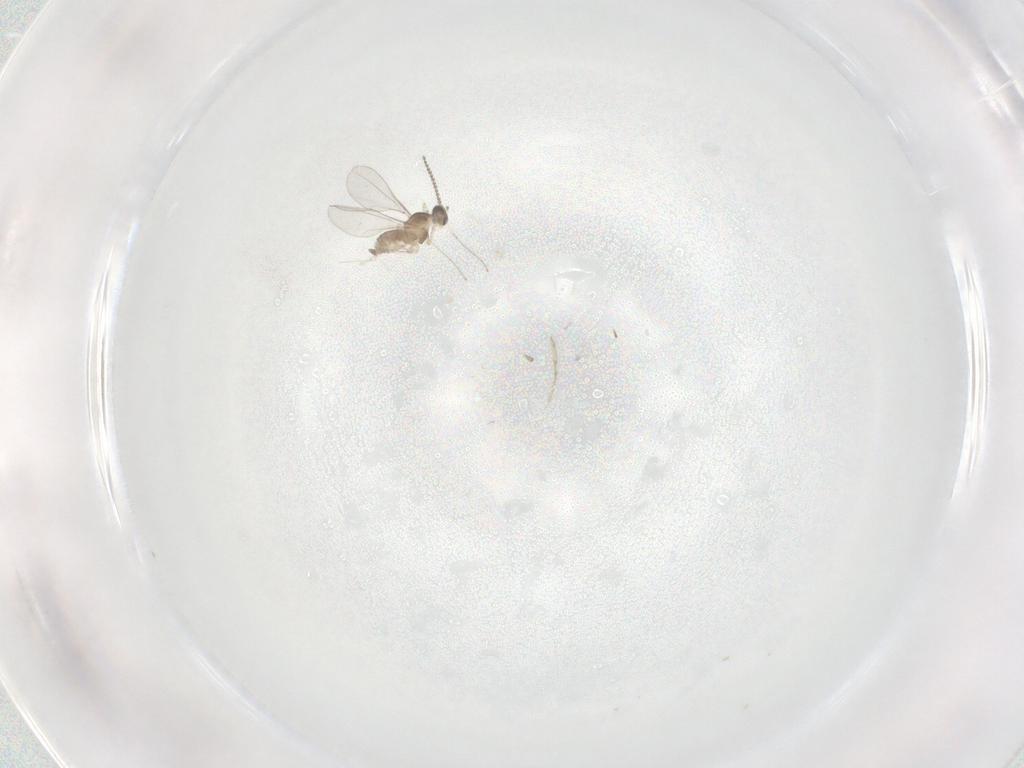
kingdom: Animalia
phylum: Arthropoda
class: Insecta
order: Diptera
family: Cecidomyiidae
